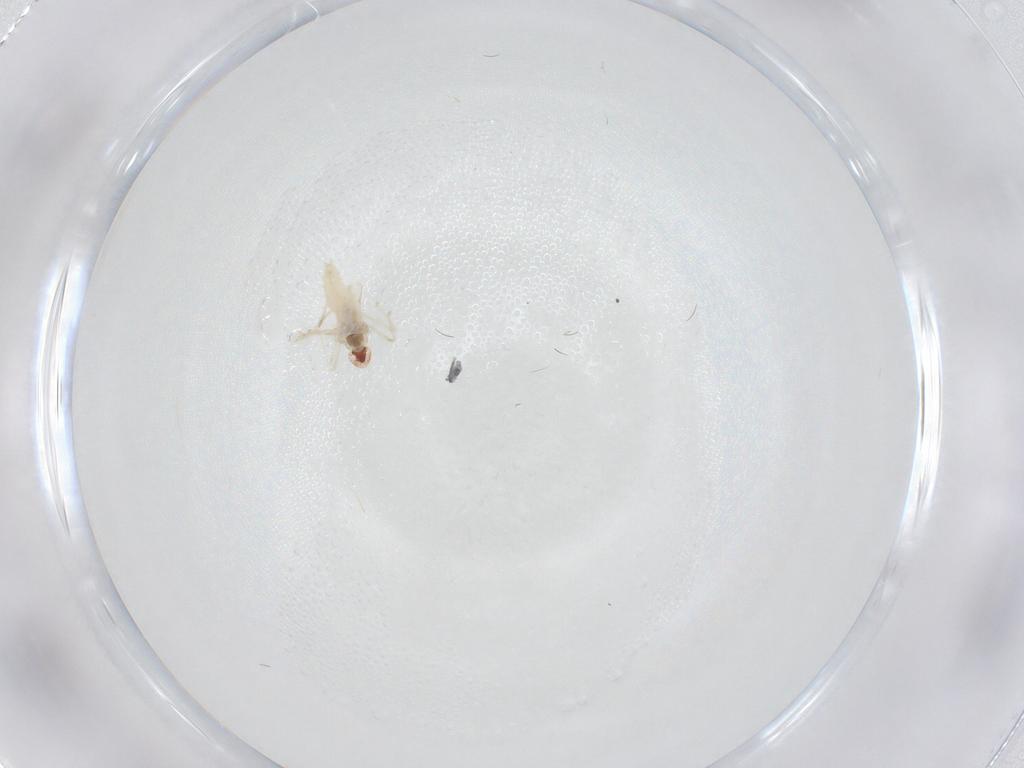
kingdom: Animalia
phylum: Arthropoda
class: Insecta
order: Diptera
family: Cecidomyiidae
